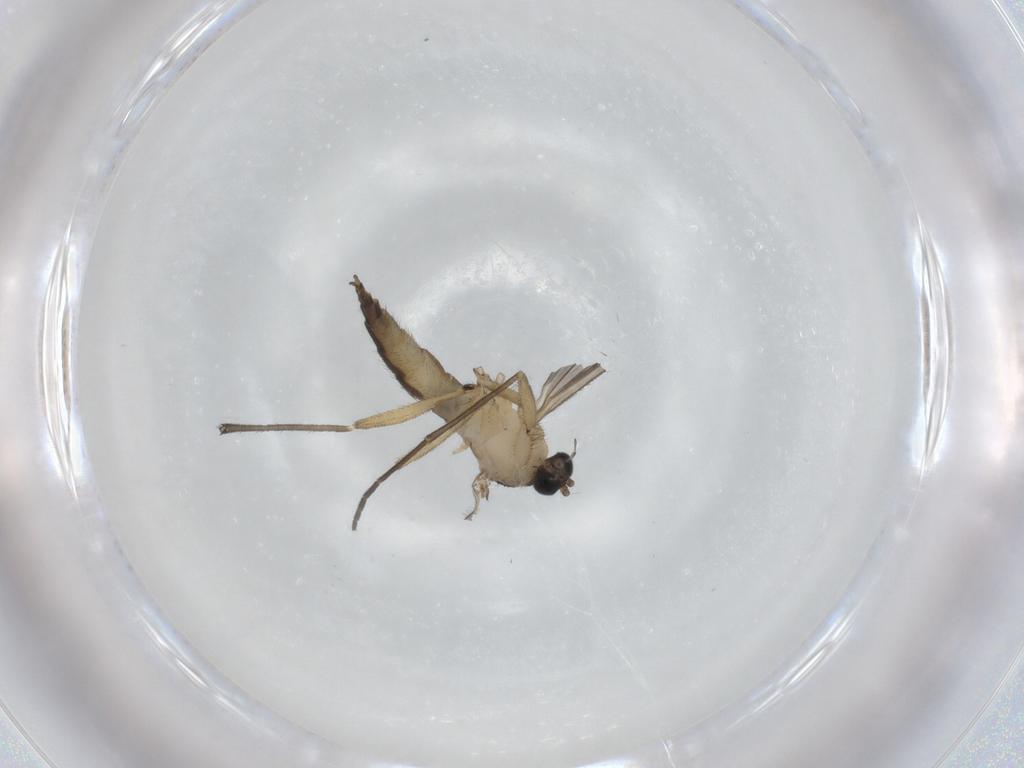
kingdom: Animalia
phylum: Arthropoda
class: Insecta
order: Diptera
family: Sciaridae
